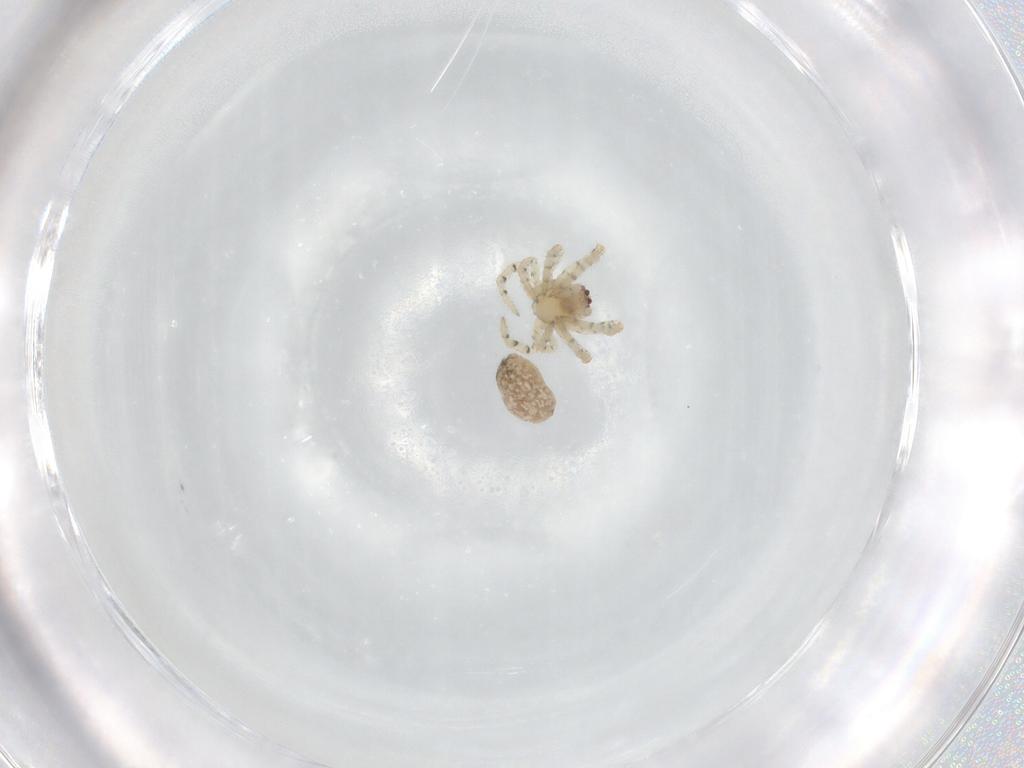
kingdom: Animalia
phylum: Arthropoda
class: Arachnida
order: Araneae
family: Theridiidae
